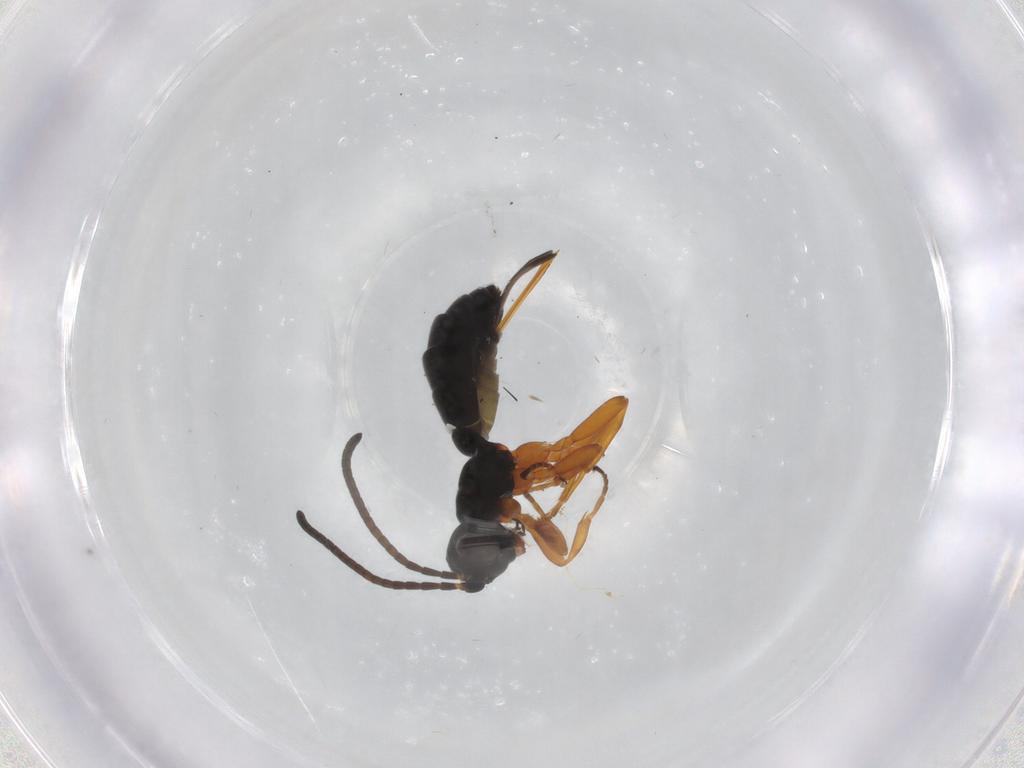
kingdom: Animalia
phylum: Arthropoda
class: Insecta
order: Hymenoptera
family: Ichneumonidae
